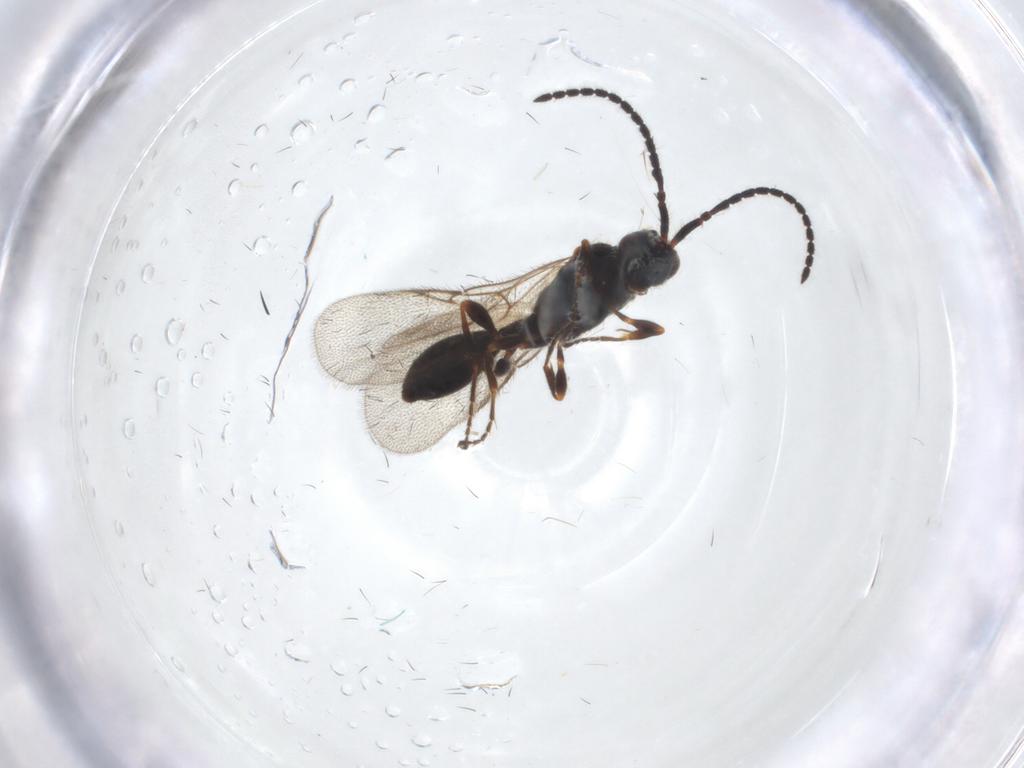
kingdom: Animalia
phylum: Arthropoda
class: Insecta
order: Hymenoptera
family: Diapriidae
